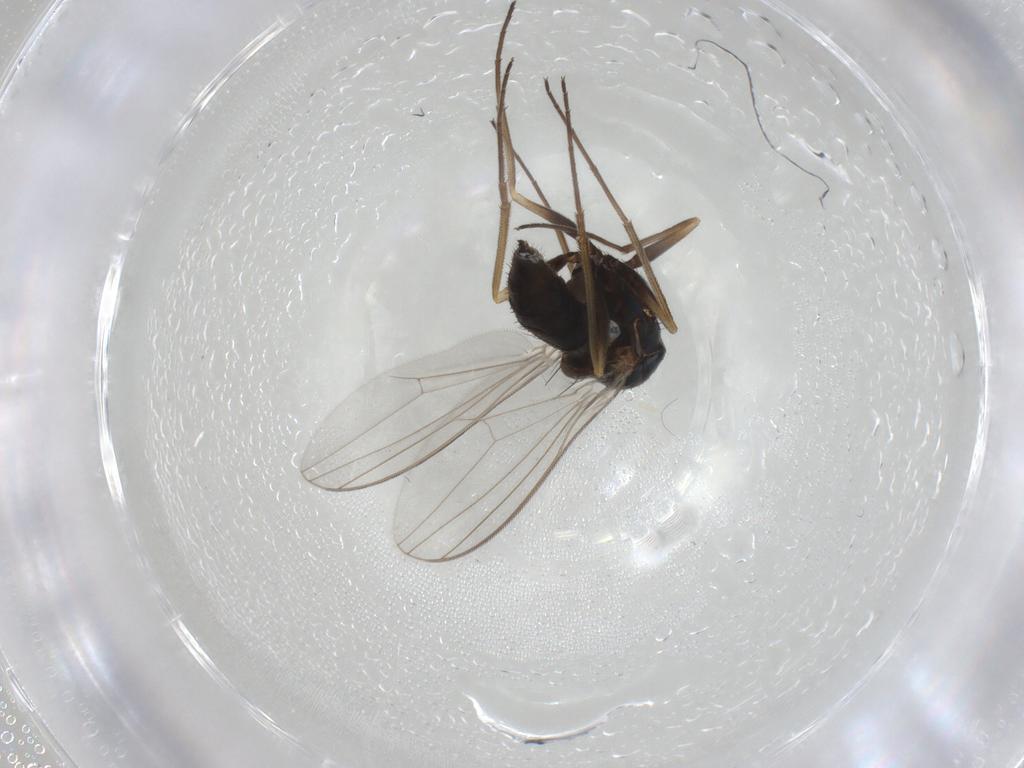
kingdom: Animalia
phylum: Arthropoda
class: Insecta
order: Diptera
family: Dolichopodidae
